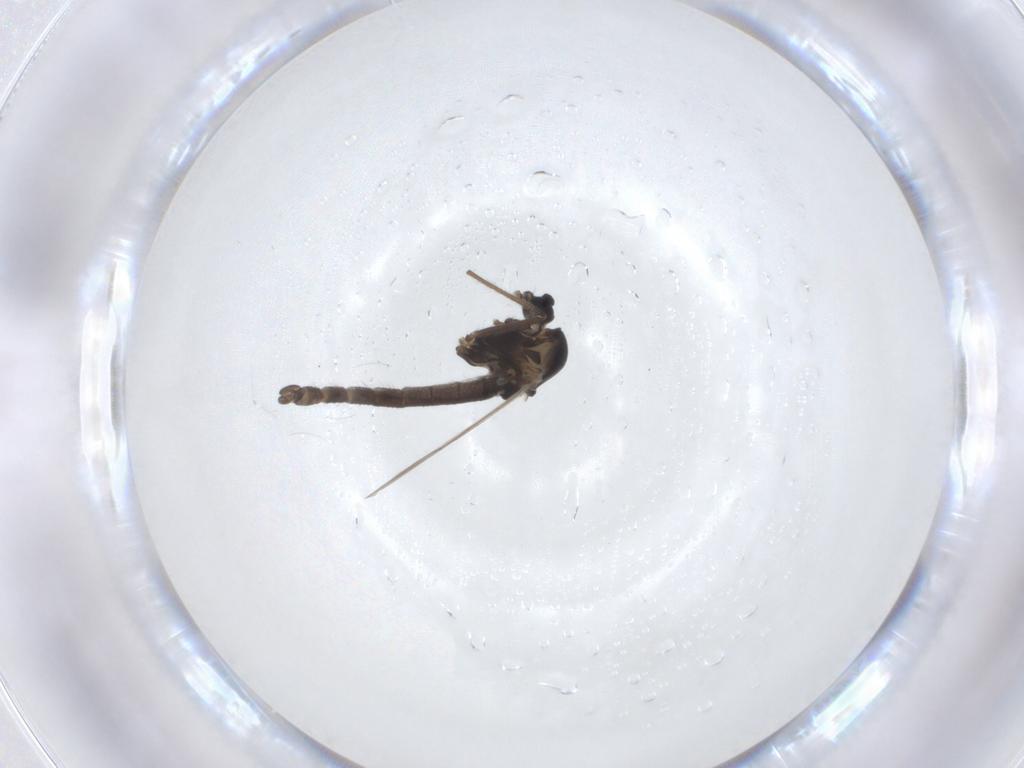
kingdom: Animalia
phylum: Arthropoda
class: Insecta
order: Diptera
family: Chironomidae
